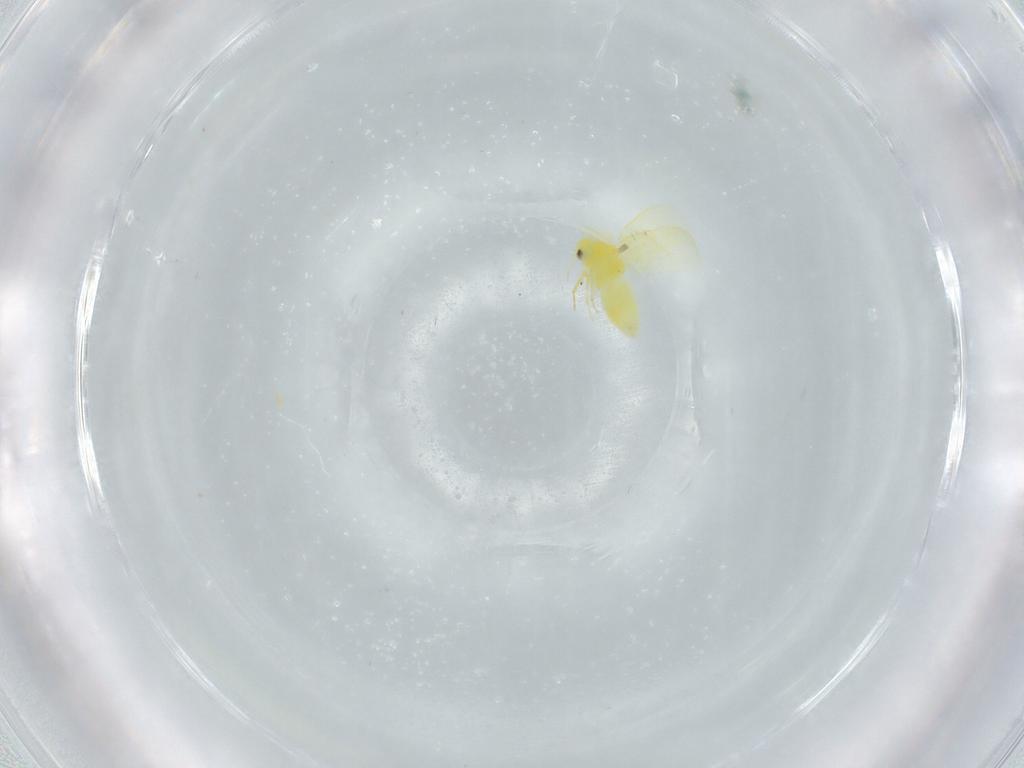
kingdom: Animalia
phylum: Arthropoda
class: Insecta
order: Hemiptera
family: Aleyrodidae
